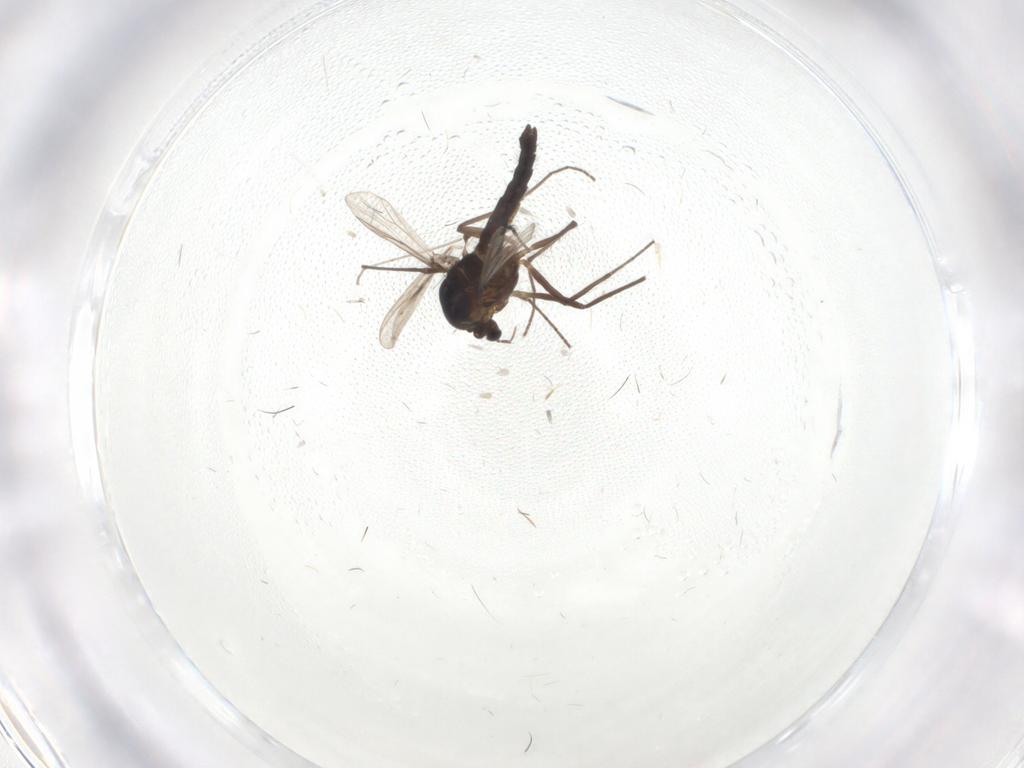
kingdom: Animalia
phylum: Arthropoda
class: Insecta
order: Diptera
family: Chironomidae
